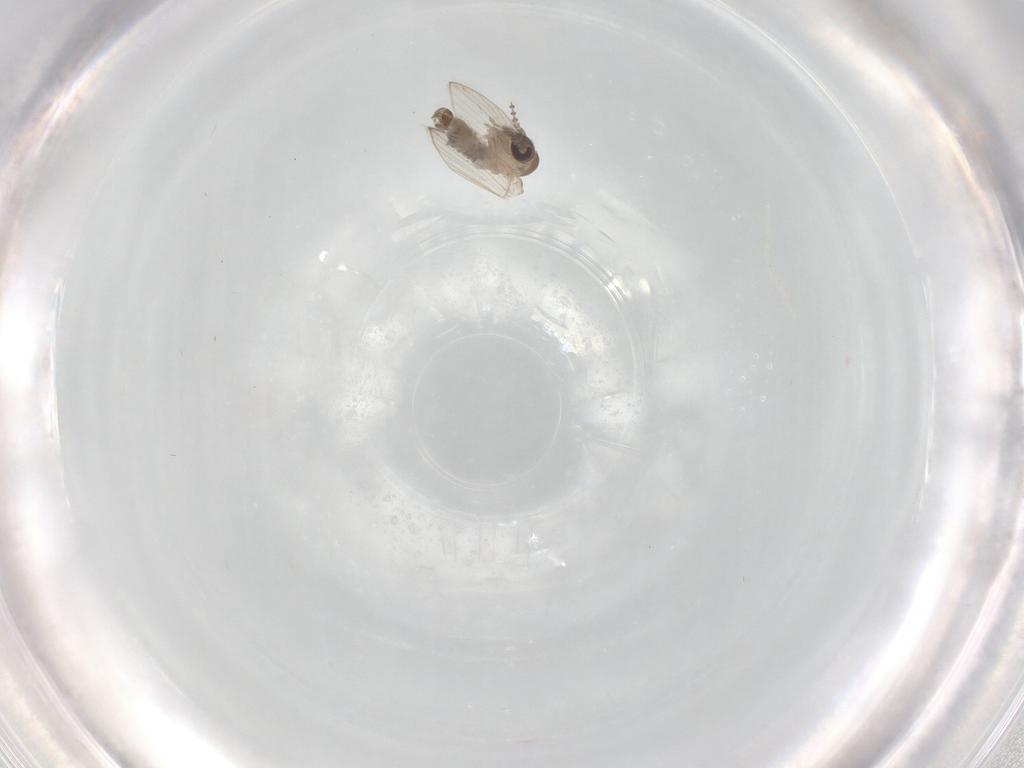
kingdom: Animalia
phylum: Arthropoda
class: Insecta
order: Diptera
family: Psychodidae
